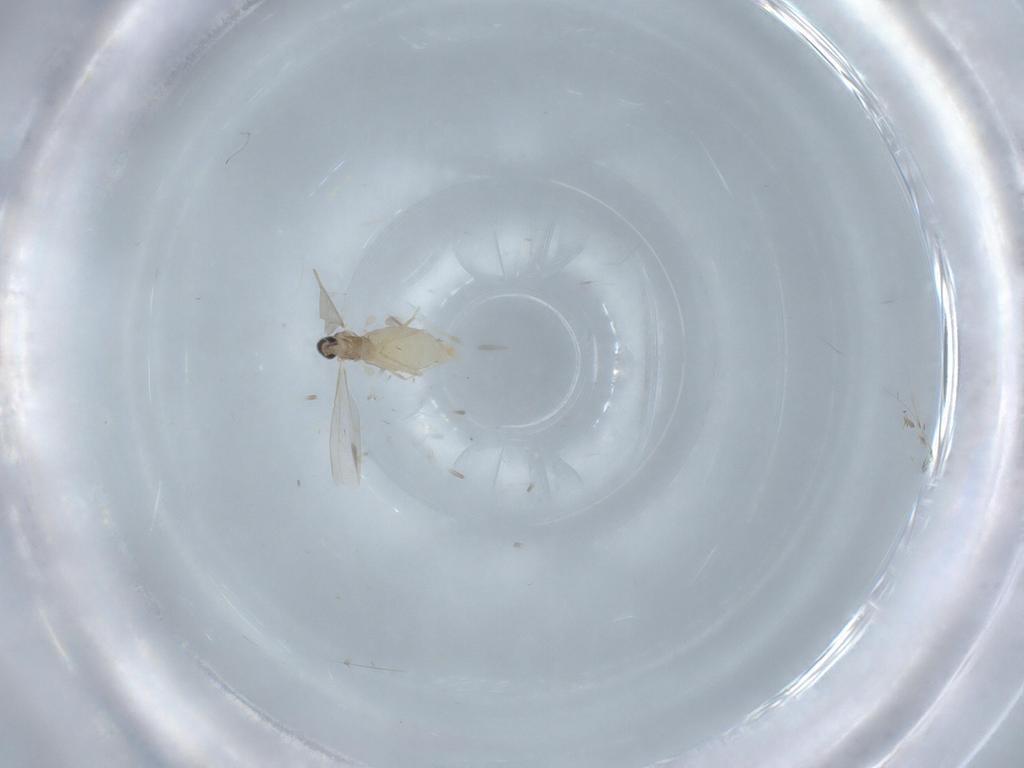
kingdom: Animalia
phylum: Arthropoda
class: Insecta
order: Diptera
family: Cecidomyiidae
